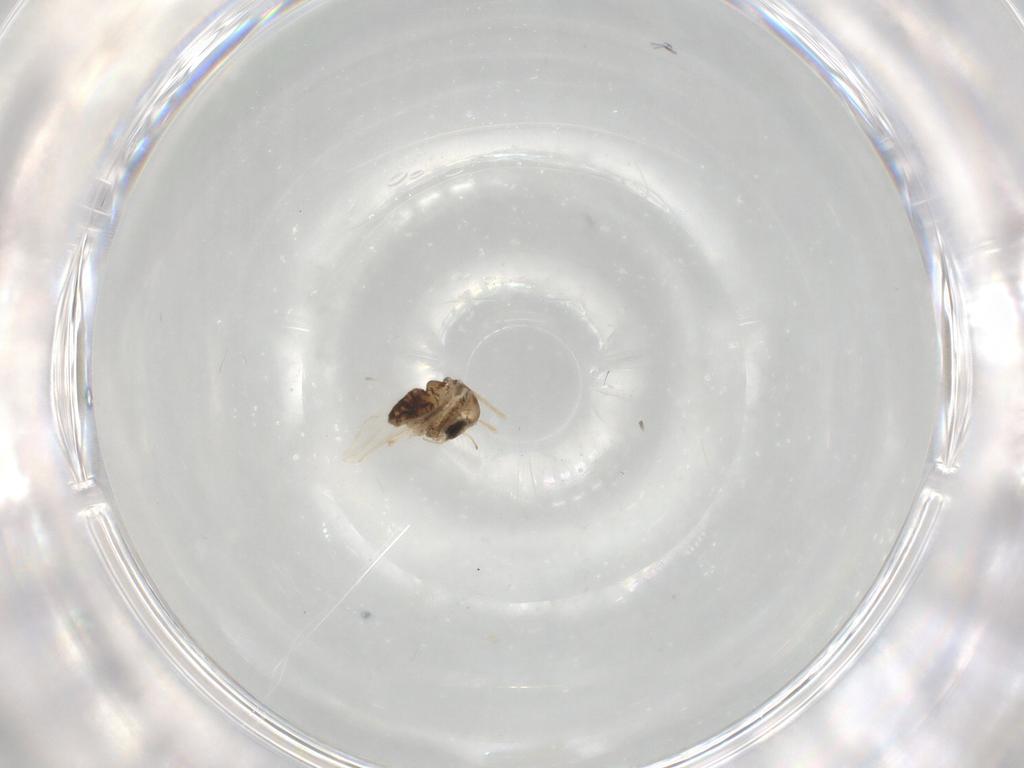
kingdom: Animalia
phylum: Arthropoda
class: Insecta
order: Diptera
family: Chironomidae
